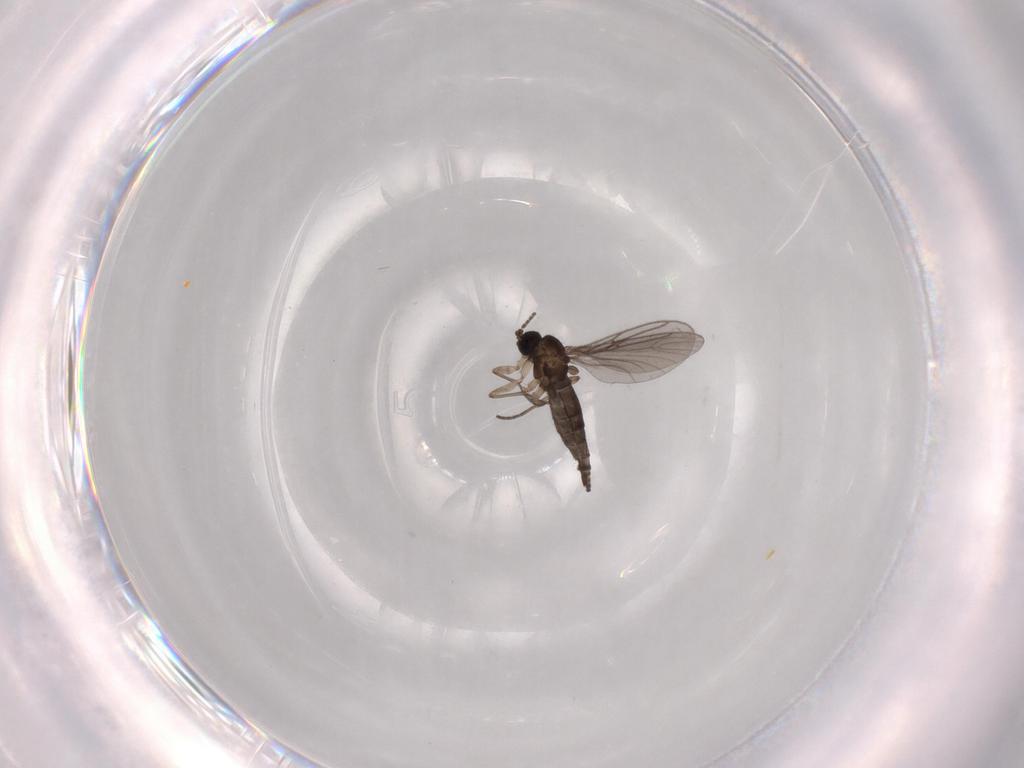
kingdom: Animalia
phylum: Arthropoda
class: Insecta
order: Diptera
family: Sciaridae
